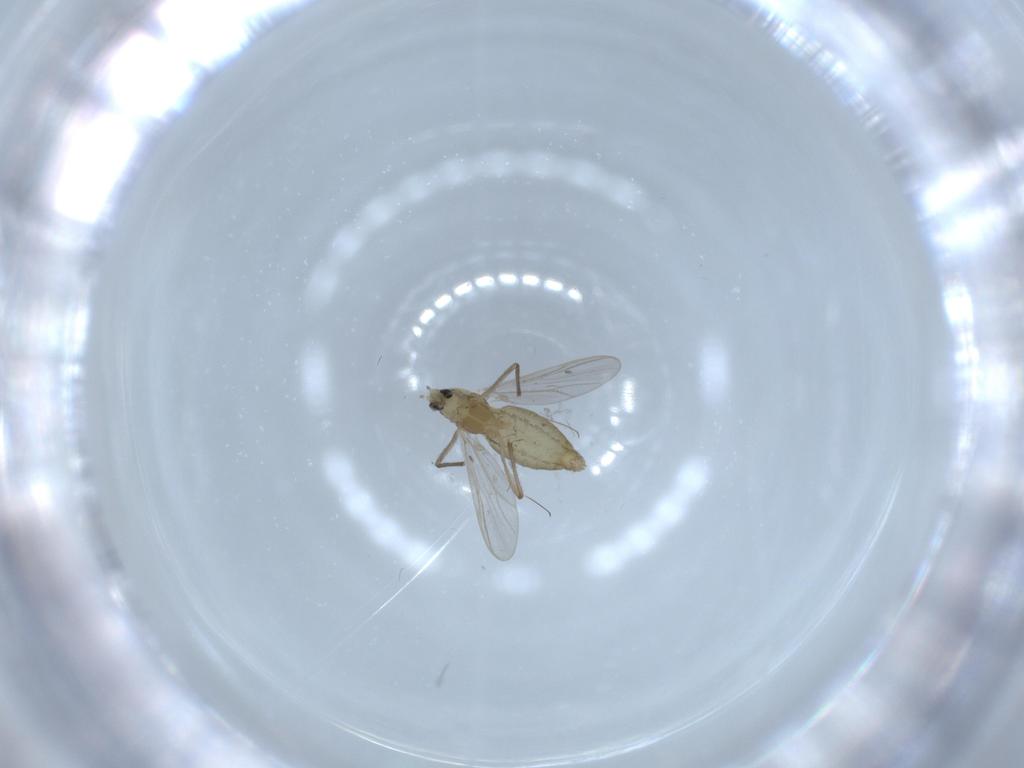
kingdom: Animalia
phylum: Arthropoda
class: Insecta
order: Diptera
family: Chironomidae
